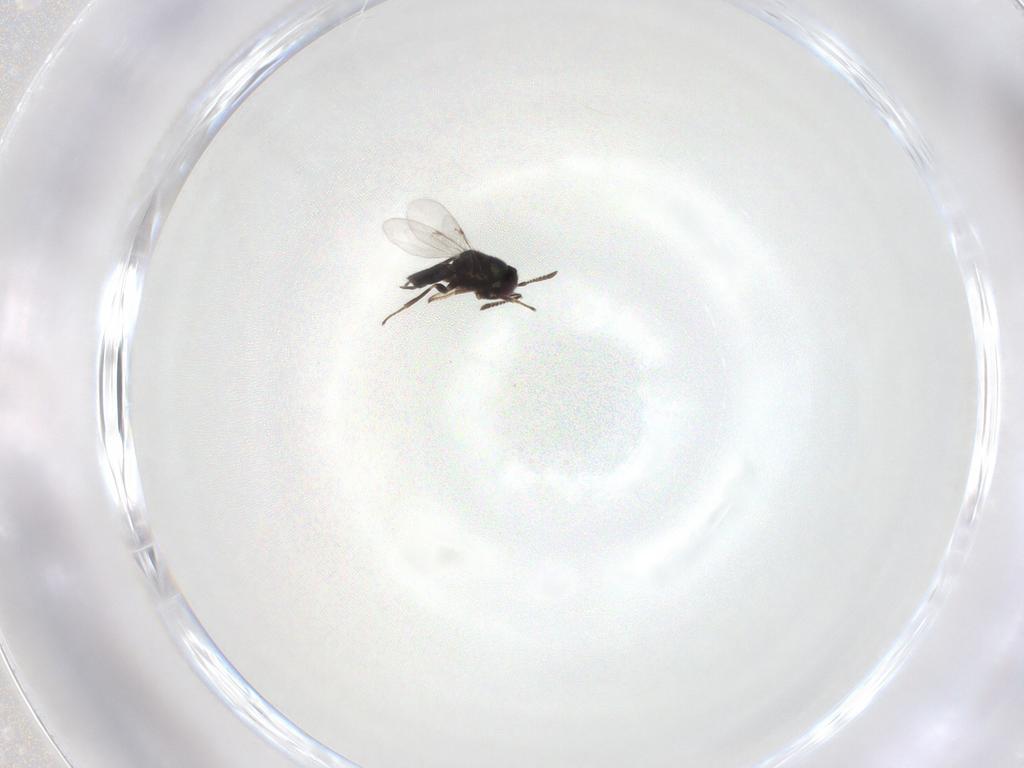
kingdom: Animalia
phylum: Arthropoda
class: Insecta
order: Hymenoptera
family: Encyrtidae
